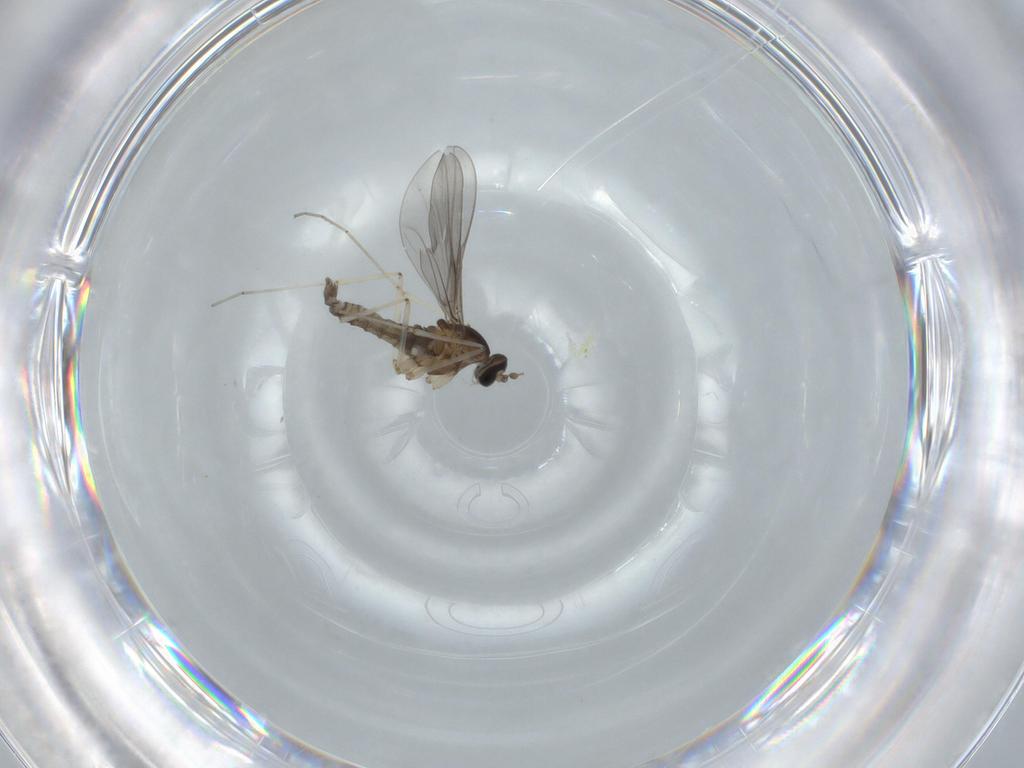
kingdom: Animalia
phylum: Arthropoda
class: Insecta
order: Diptera
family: Cecidomyiidae
